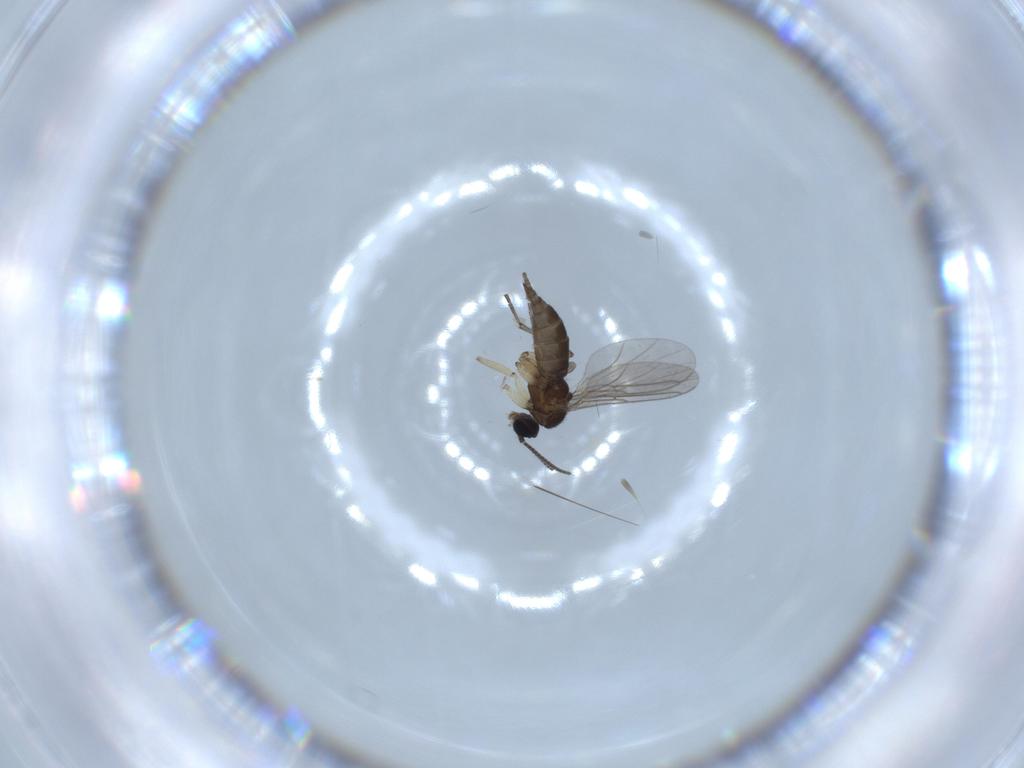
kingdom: Animalia
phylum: Arthropoda
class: Insecta
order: Diptera
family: Sciaridae
